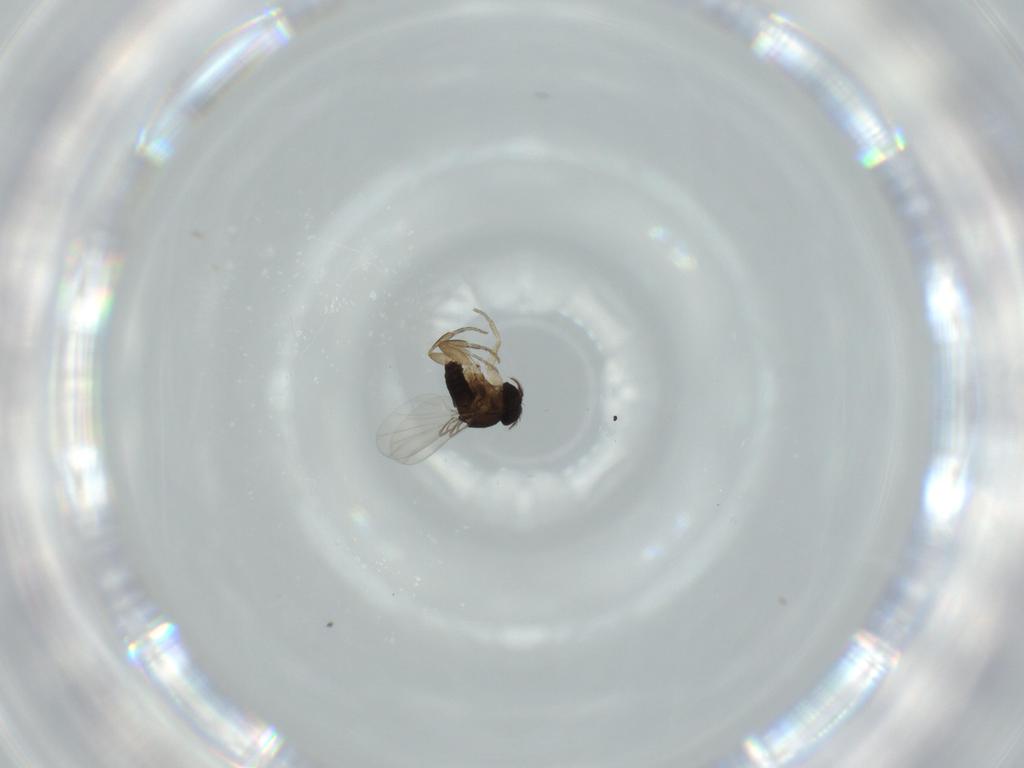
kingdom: Animalia
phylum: Arthropoda
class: Insecta
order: Diptera
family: Phoridae
